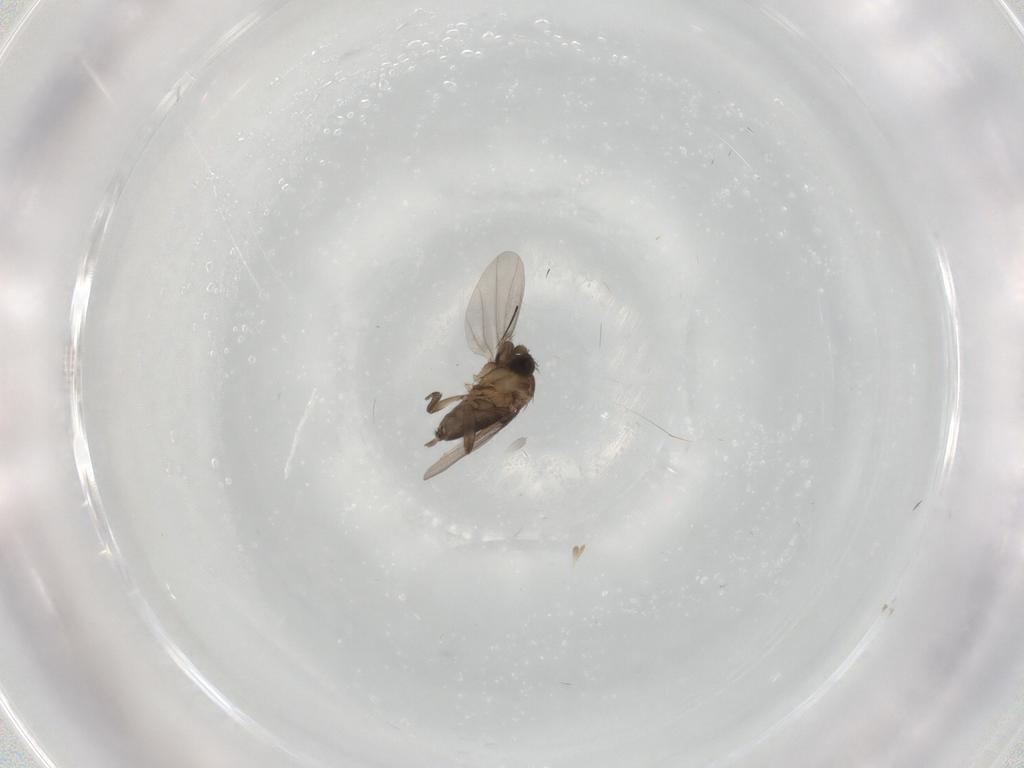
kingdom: Animalia
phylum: Arthropoda
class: Insecta
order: Diptera
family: Phoridae
